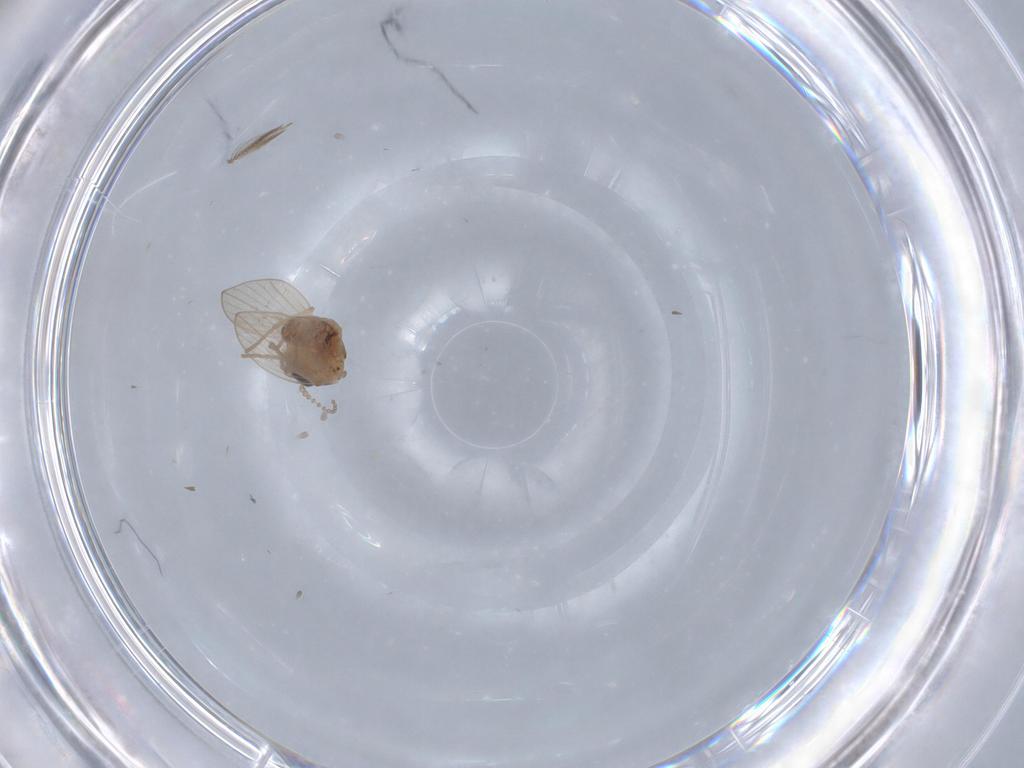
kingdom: Animalia
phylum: Arthropoda
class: Insecta
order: Diptera
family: Ceratopogonidae
